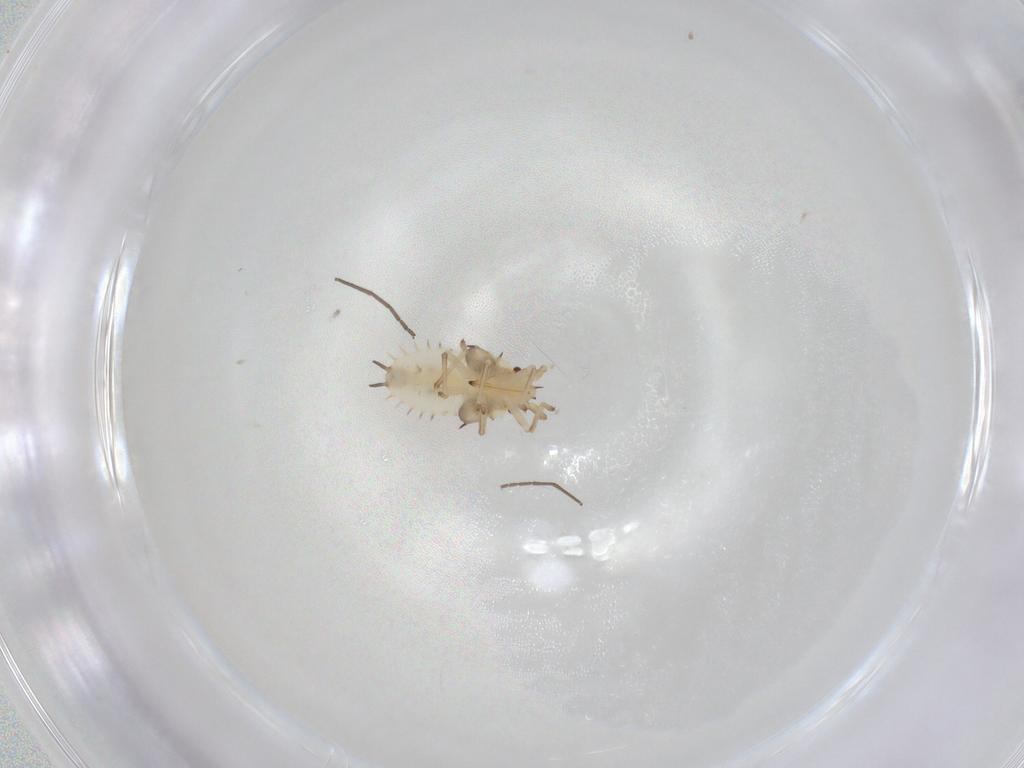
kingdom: Animalia
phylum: Arthropoda
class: Insecta
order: Hemiptera
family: Tingidae
